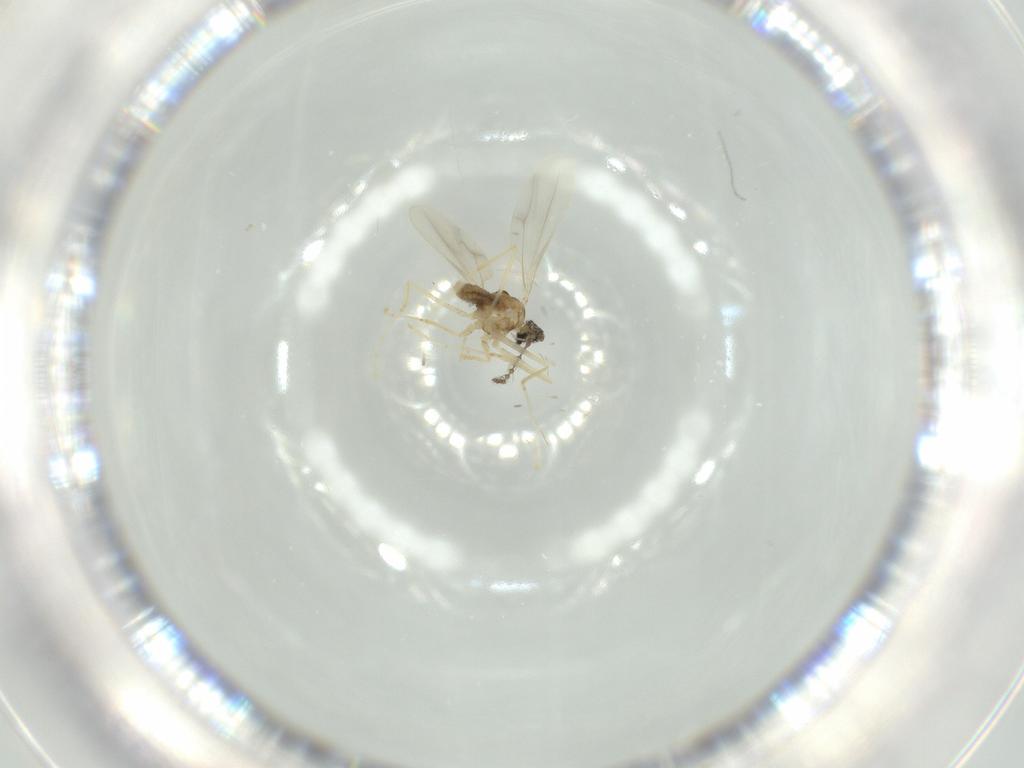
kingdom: Animalia
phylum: Arthropoda
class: Insecta
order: Diptera
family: Cecidomyiidae
